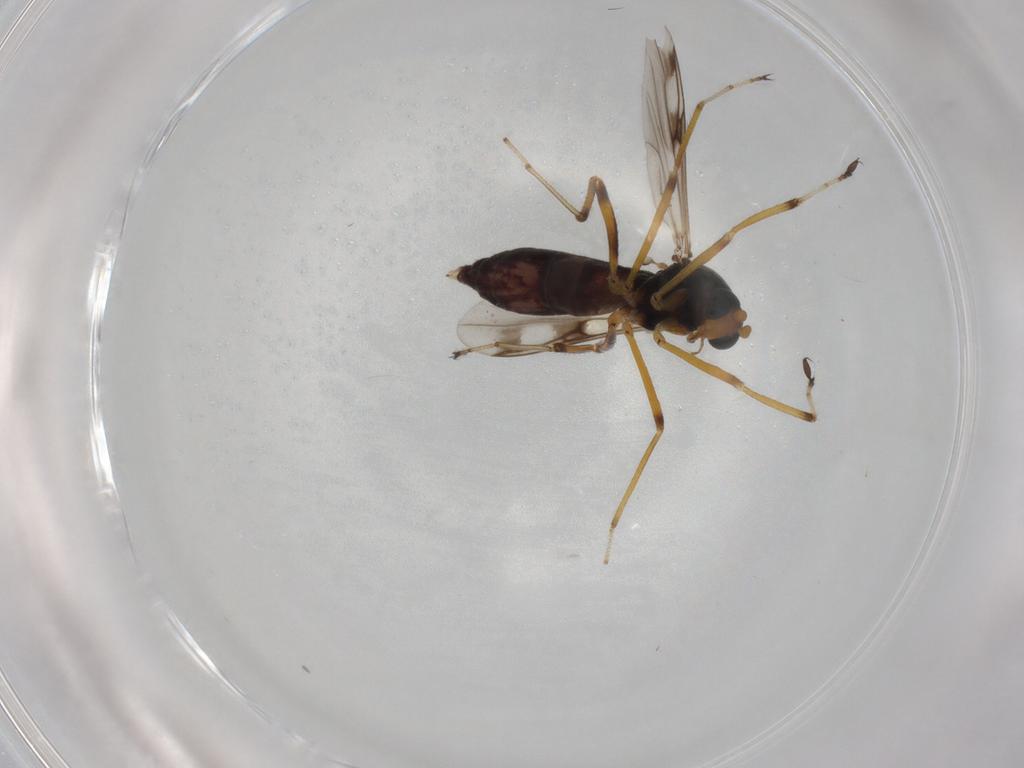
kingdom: Animalia
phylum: Arthropoda
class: Insecta
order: Diptera
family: Ceratopogonidae
